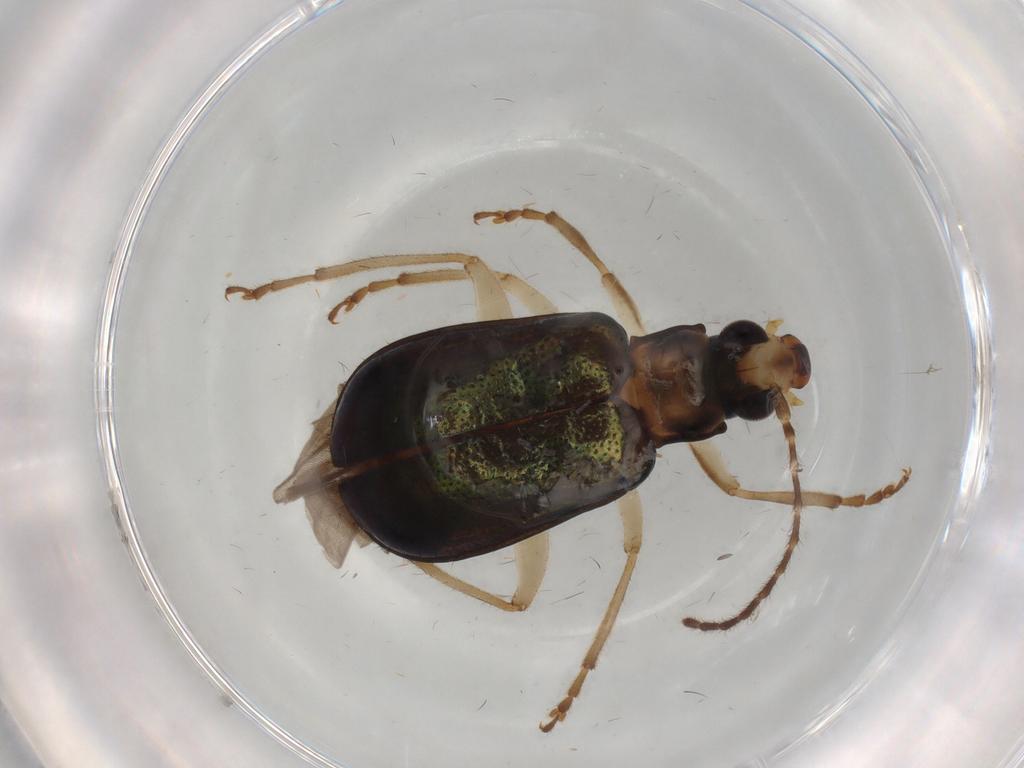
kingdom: Animalia
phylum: Arthropoda
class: Insecta
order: Coleoptera
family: Chrysomelidae
